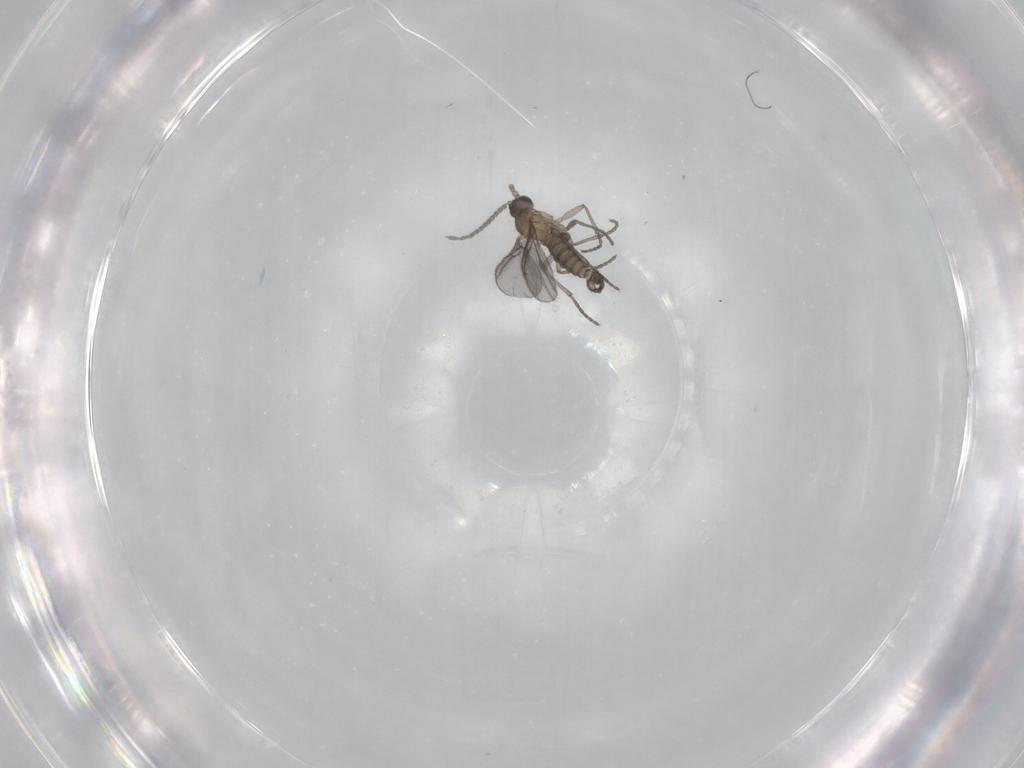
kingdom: Animalia
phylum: Arthropoda
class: Insecta
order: Diptera
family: Sciaridae
